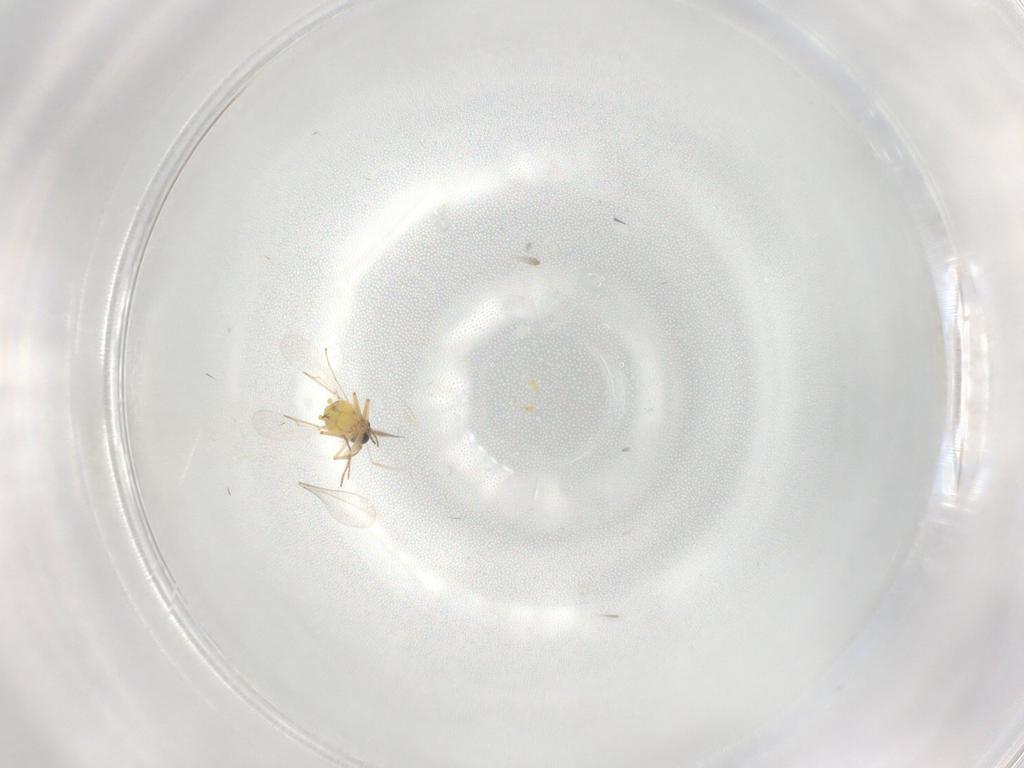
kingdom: Animalia
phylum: Arthropoda
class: Insecta
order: Diptera
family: Ceratopogonidae
